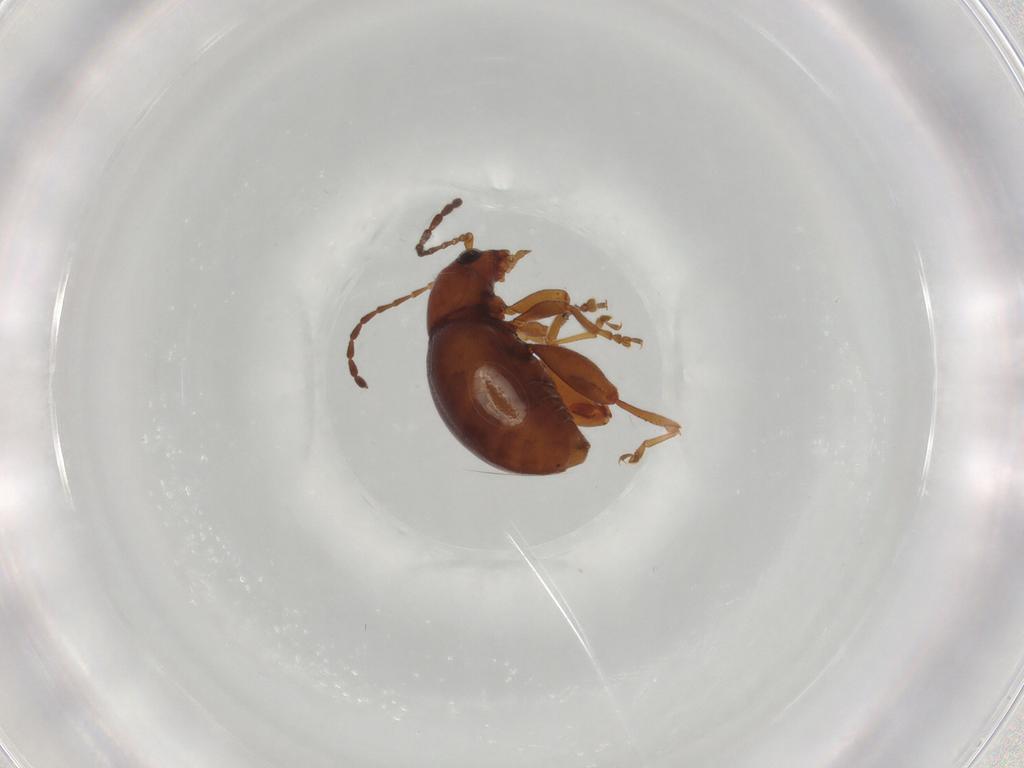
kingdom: Animalia
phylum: Arthropoda
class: Insecta
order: Coleoptera
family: Chrysomelidae
